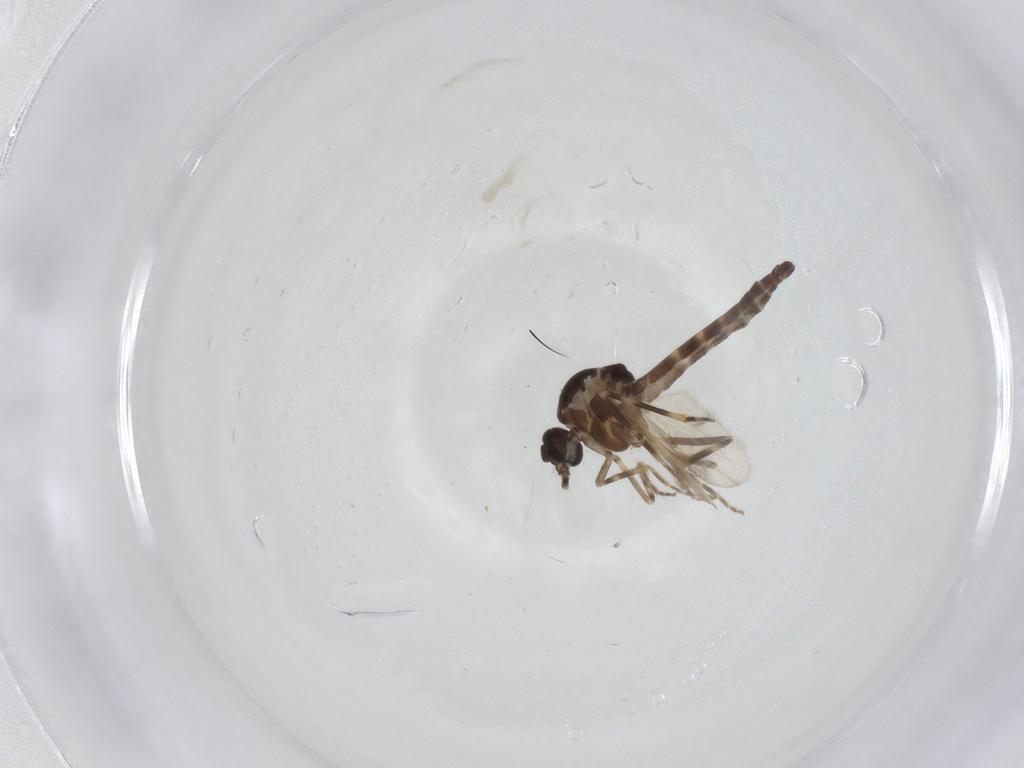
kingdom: Animalia
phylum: Arthropoda
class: Insecta
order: Diptera
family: Ceratopogonidae
